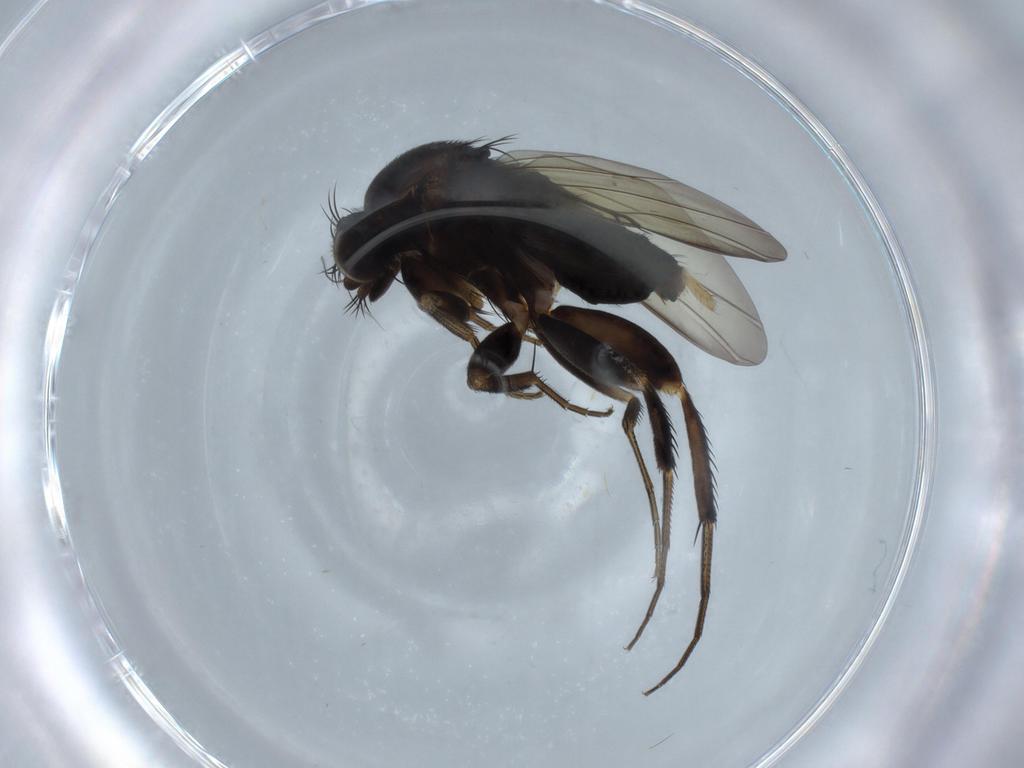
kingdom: Animalia
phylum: Arthropoda
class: Insecta
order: Diptera
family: Phoridae
